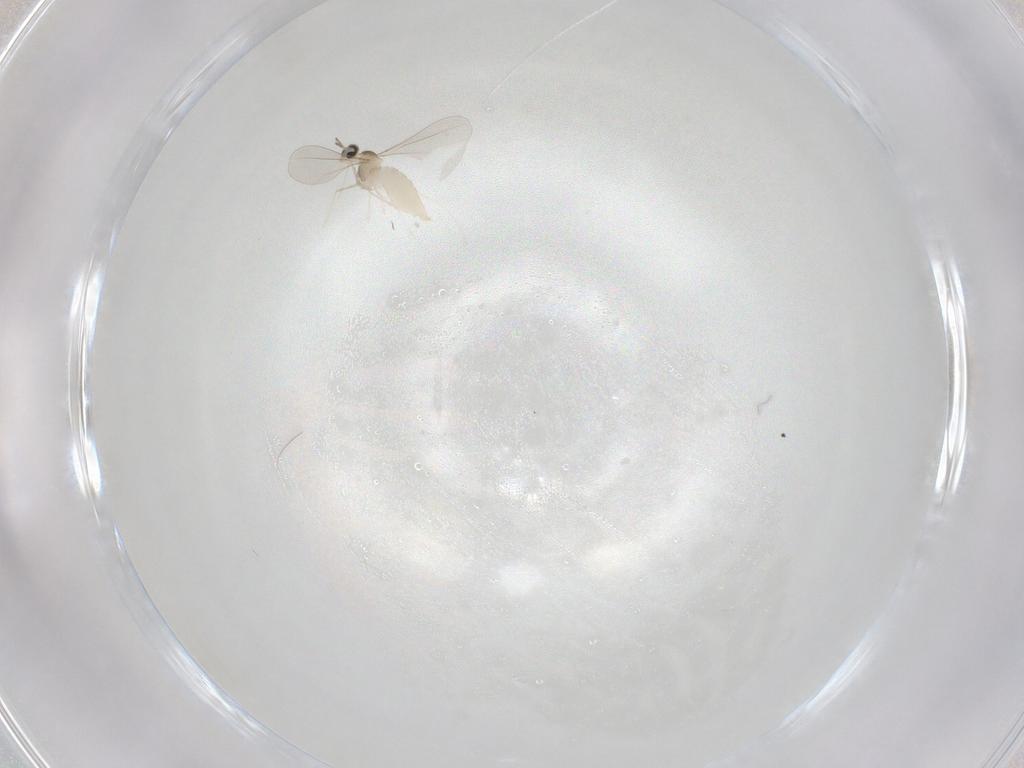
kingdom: Animalia
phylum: Arthropoda
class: Insecta
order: Diptera
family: Cecidomyiidae
